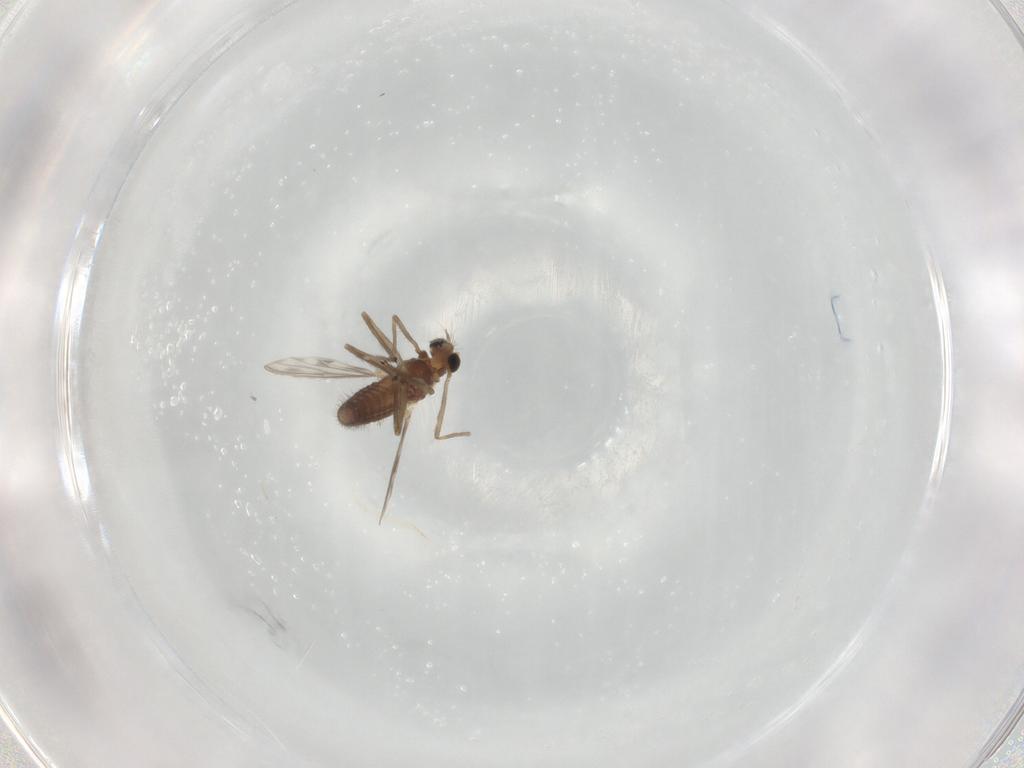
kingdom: Animalia
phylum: Arthropoda
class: Insecta
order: Diptera
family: Chironomidae
